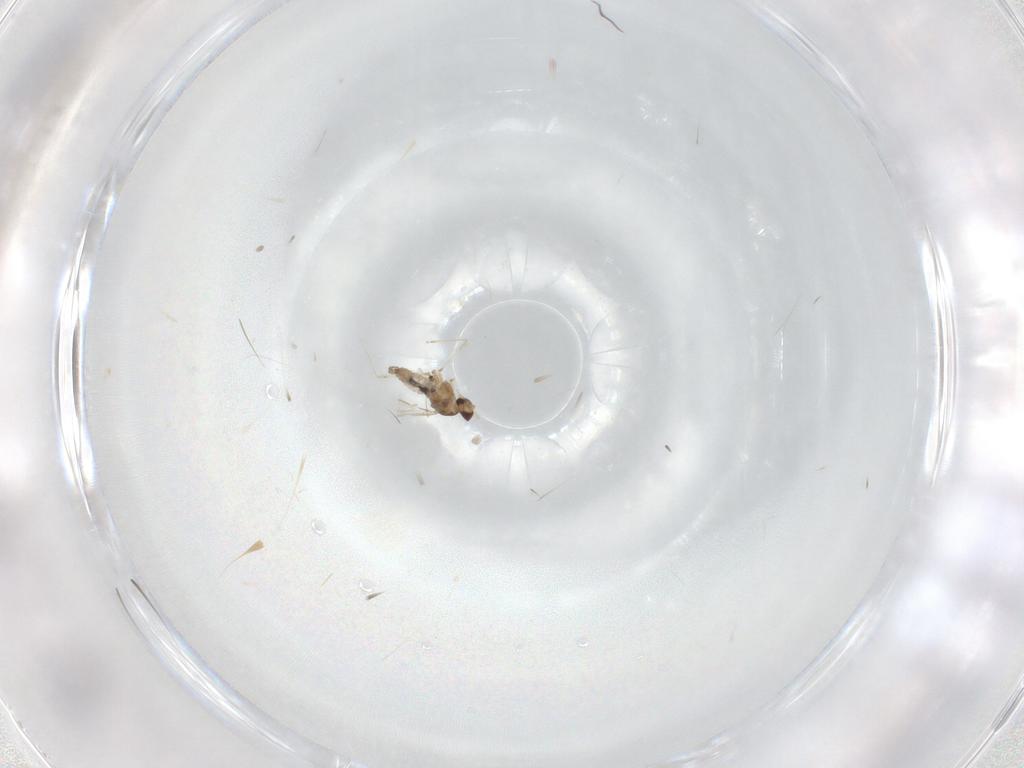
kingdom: Animalia
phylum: Arthropoda
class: Insecta
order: Diptera
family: Cecidomyiidae
